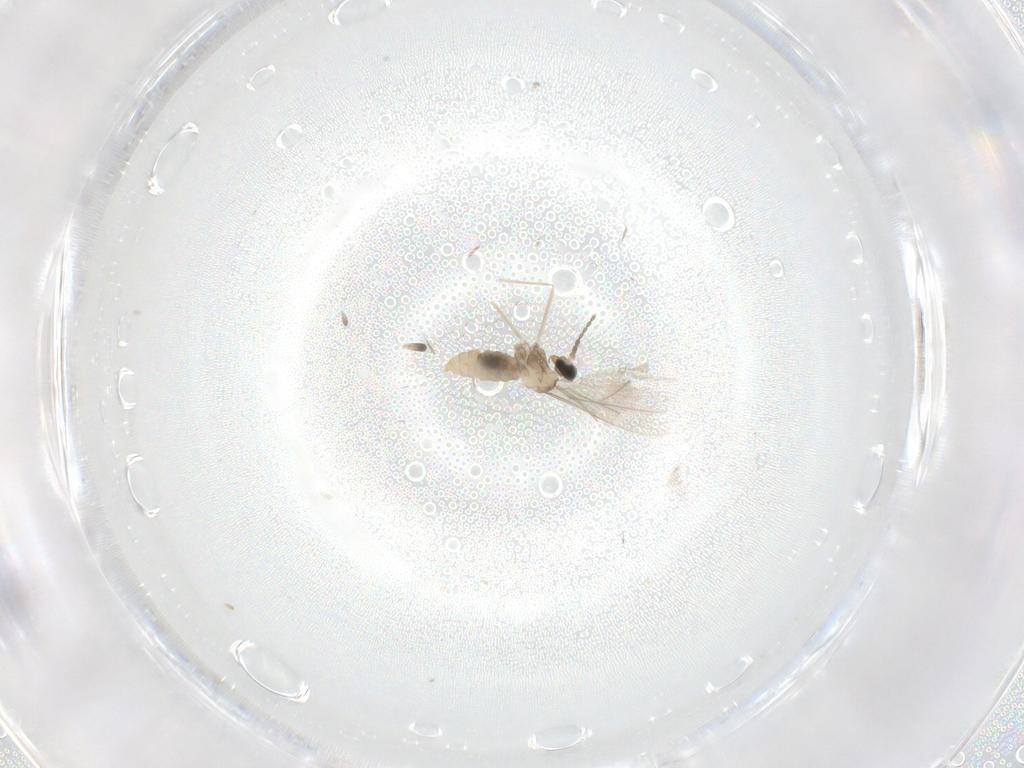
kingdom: Animalia
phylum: Arthropoda
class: Insecta
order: Diptera
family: Cecidomyiidae
